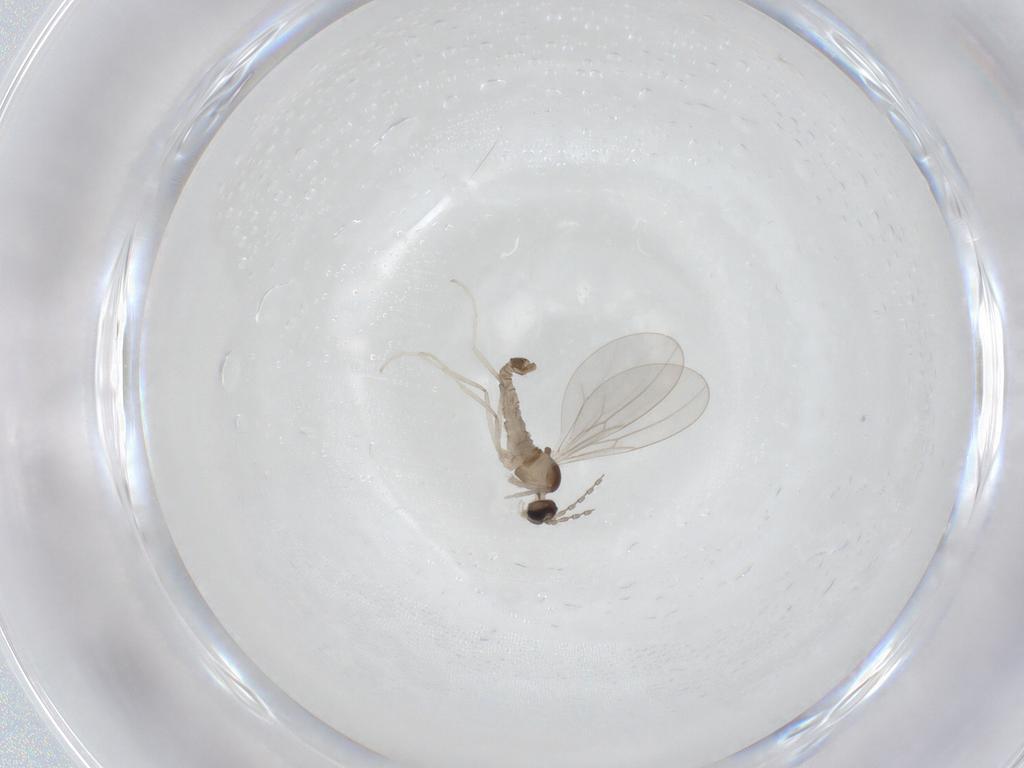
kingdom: Animalia
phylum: Arthropoda
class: Insecta
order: Diptera
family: Cecidomyiidae
